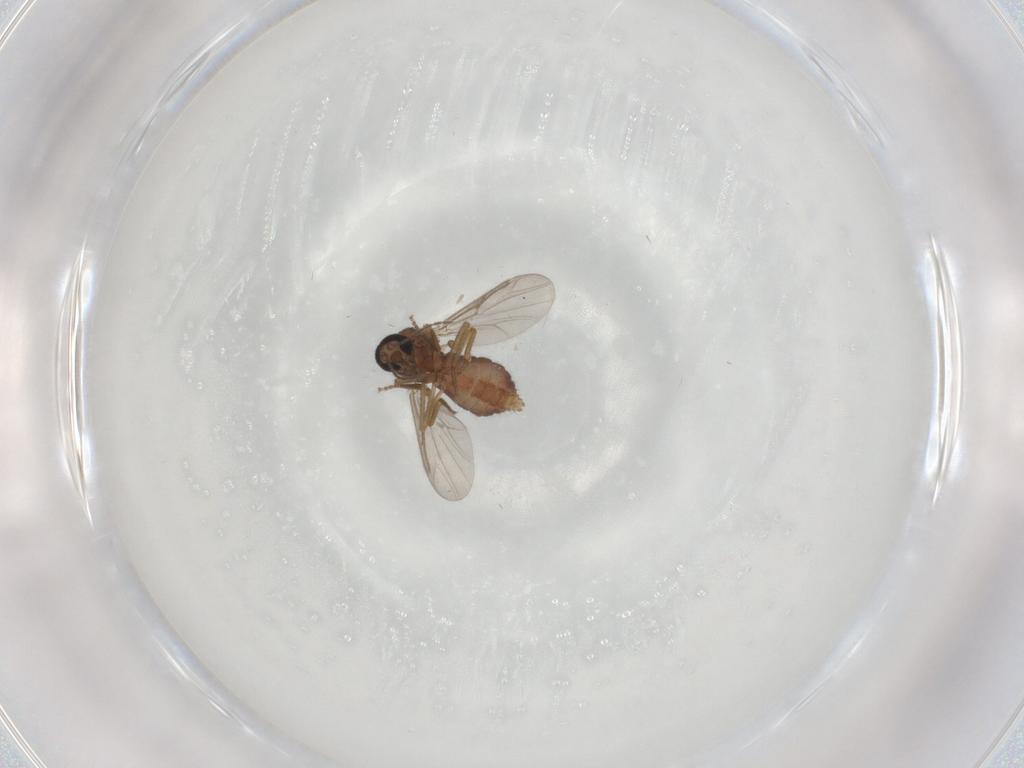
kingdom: Animalia
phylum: Arthropoda
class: Insecta
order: Diptera
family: Ceratopogonidae
